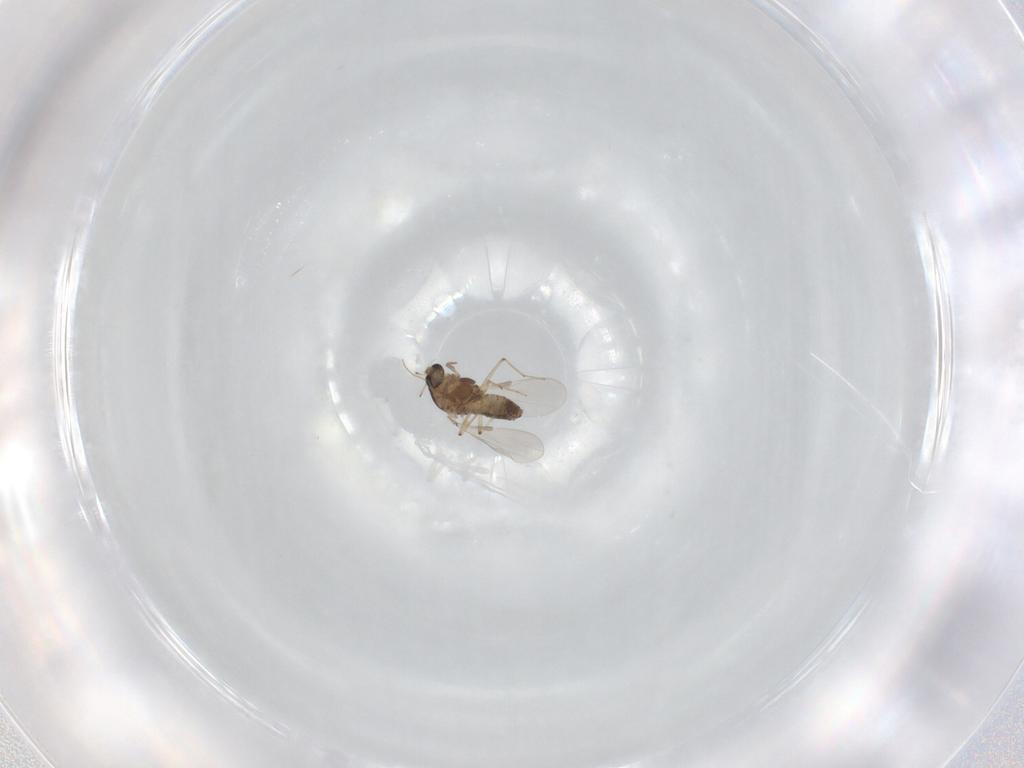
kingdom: Animalia
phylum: Arthropoda
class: Insecta
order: Diptera
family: Chironomidae
